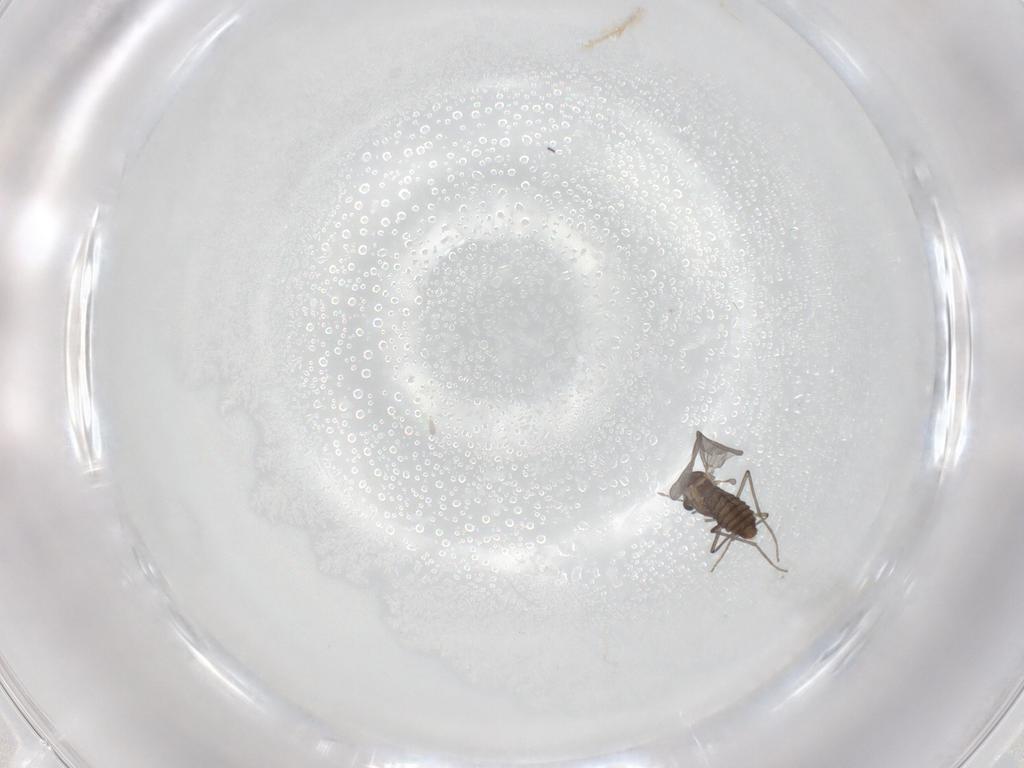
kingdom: Animalia
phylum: Arthropoda
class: Insecta
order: Diptera
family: Sciaridae
